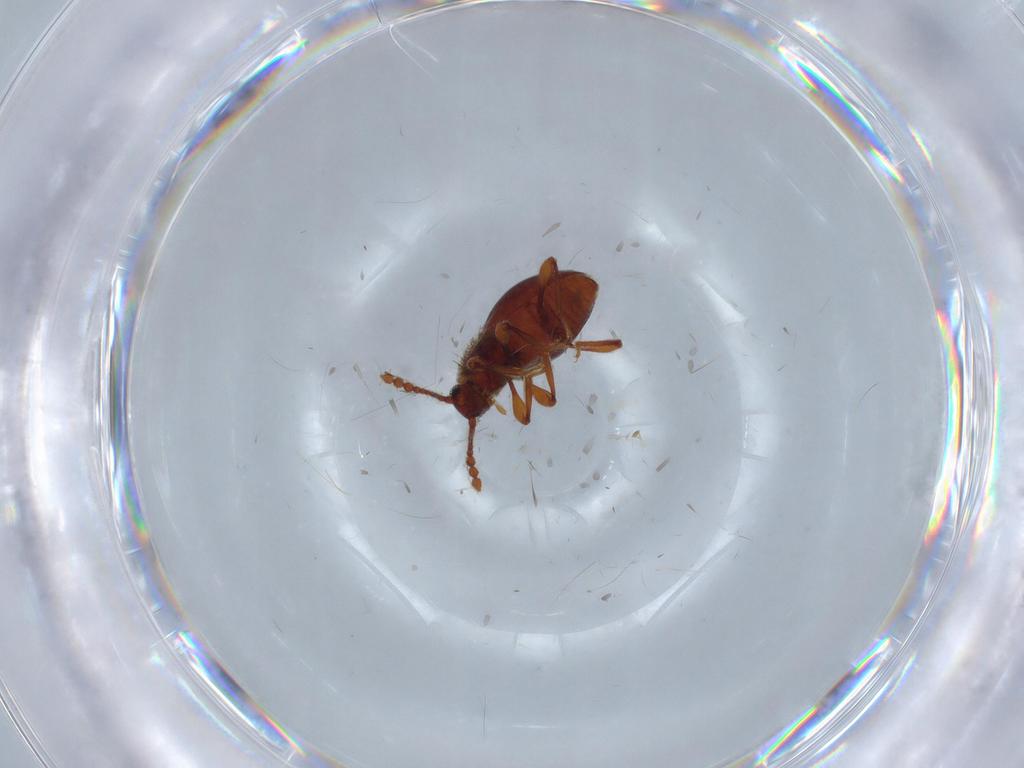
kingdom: Animalia
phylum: Arthropoda
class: Insecta
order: Coleoptera
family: Staphylinidae
